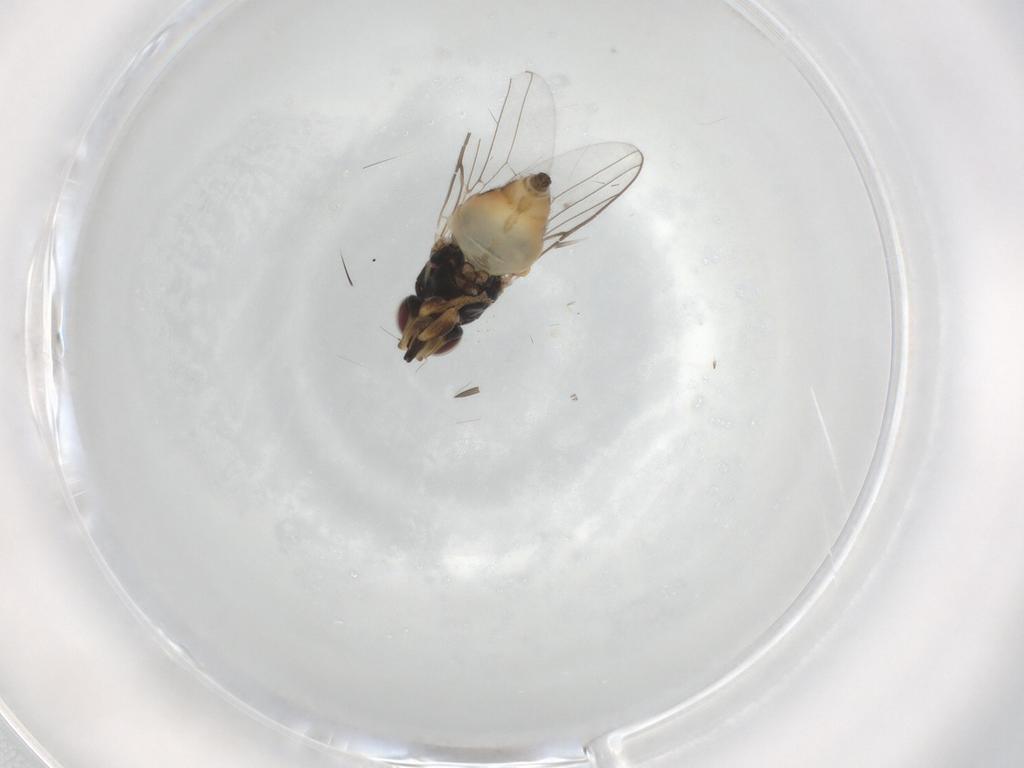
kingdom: Animalia
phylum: Arthropoda
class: Insecta
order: Diptera
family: Chloropidae
